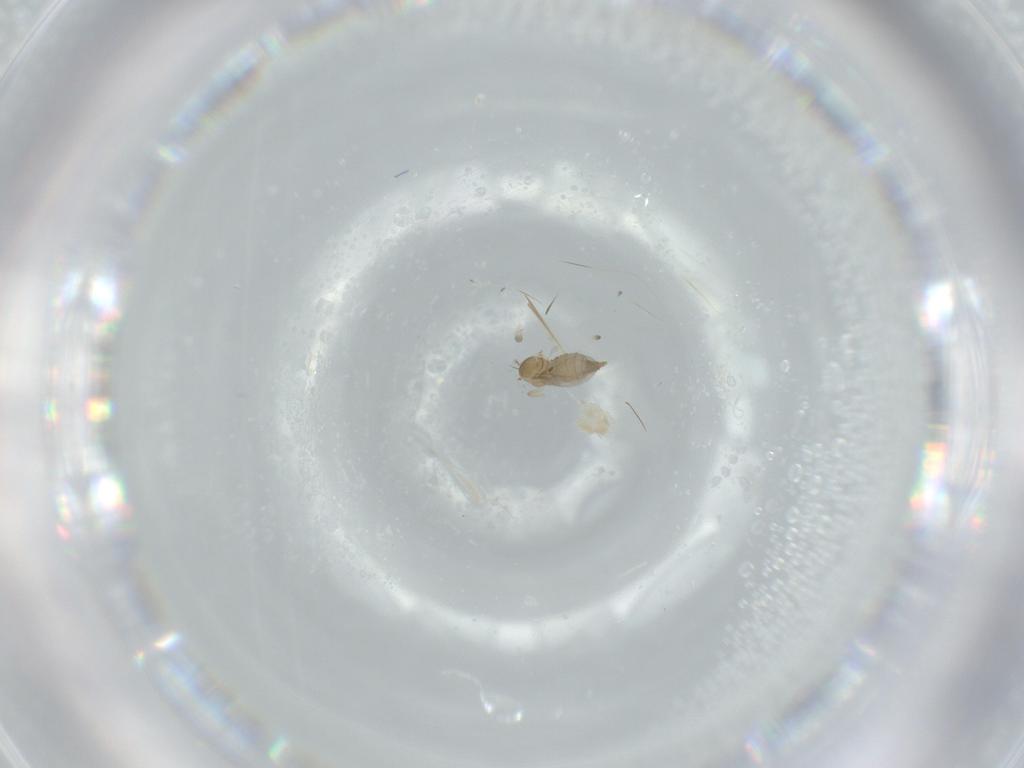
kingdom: Animalia
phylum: Arthropoda
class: Insecta
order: Diptera
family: Cecidomyiidae
